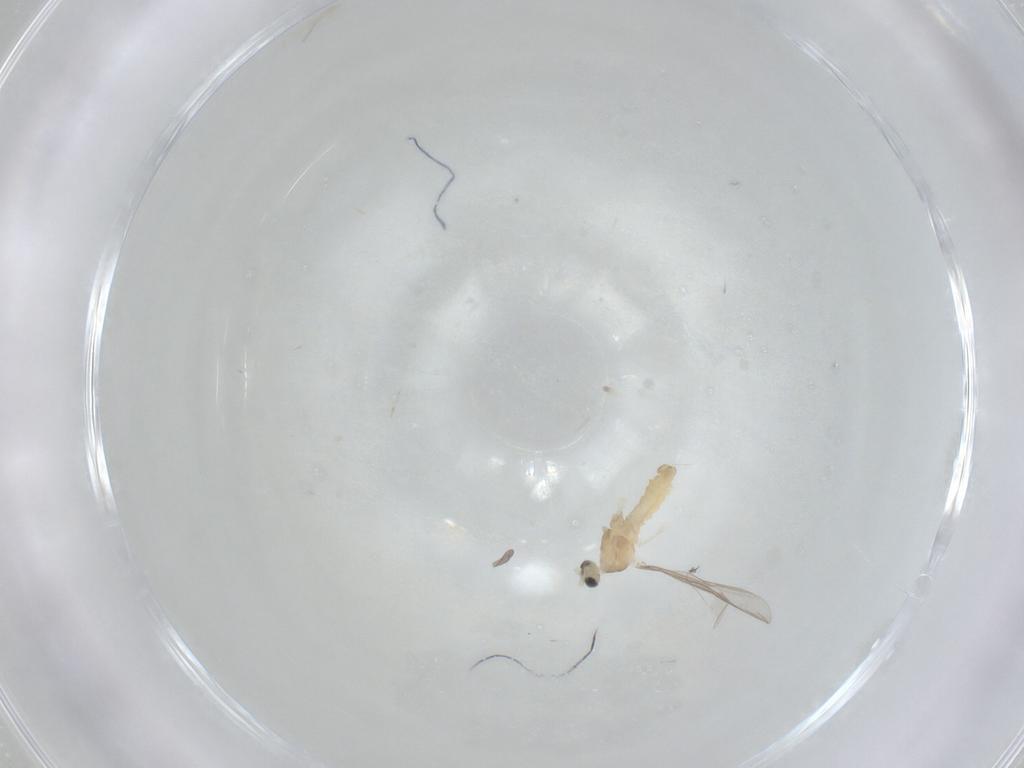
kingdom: Animalia
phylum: Arthropoda
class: Insecta
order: Diptera
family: Cecidomyiidae
